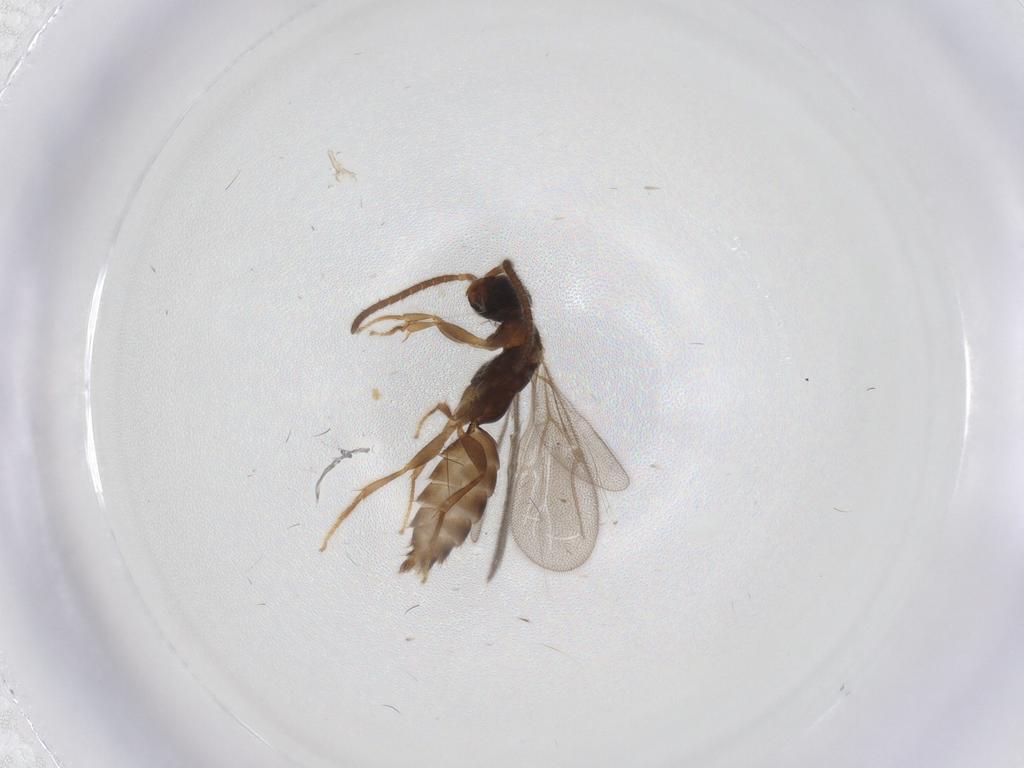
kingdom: Animalia
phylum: Arthropoda
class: Insecta
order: Hymenoptera
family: Bethylidae
